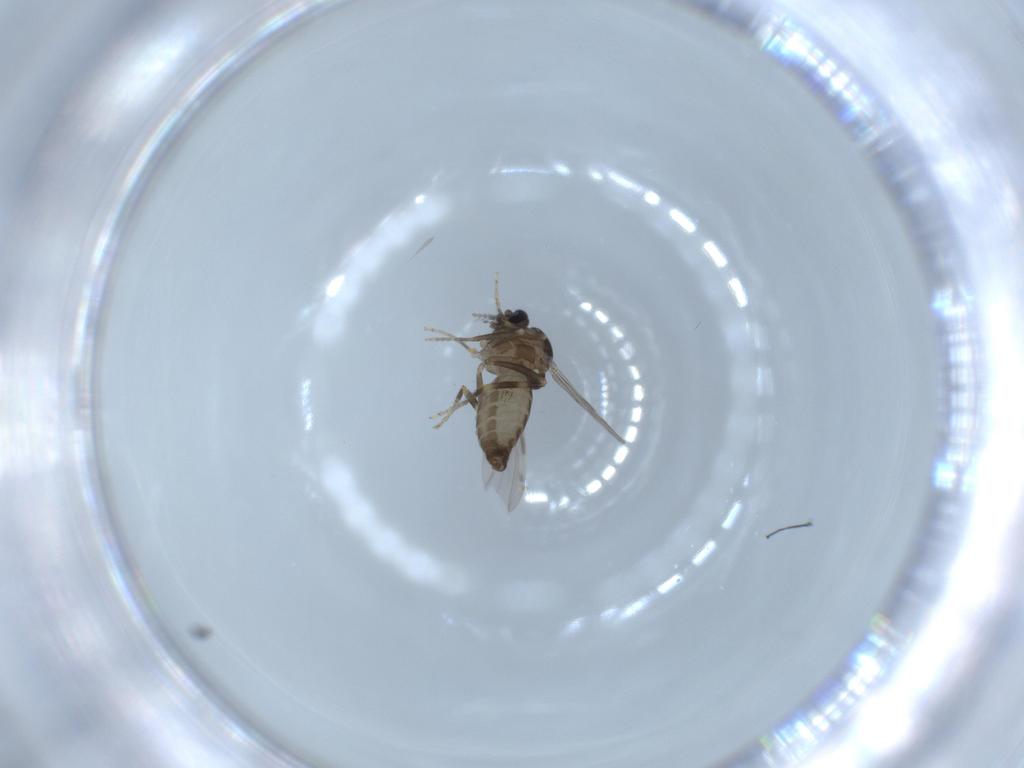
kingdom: Animalia
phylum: Arthropoda
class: Insecta
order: Diptera
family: Ceratopogonidae
